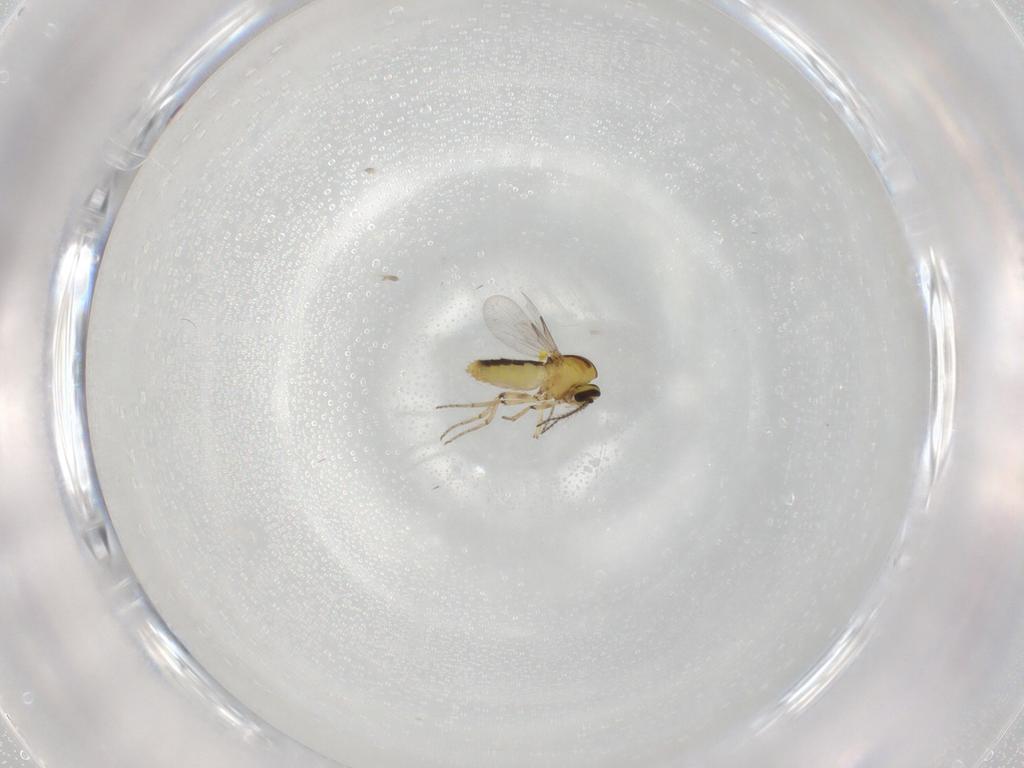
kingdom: Animalia
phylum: Arthropoda
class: Insecta
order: Diptera
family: Ceratopogonidae
